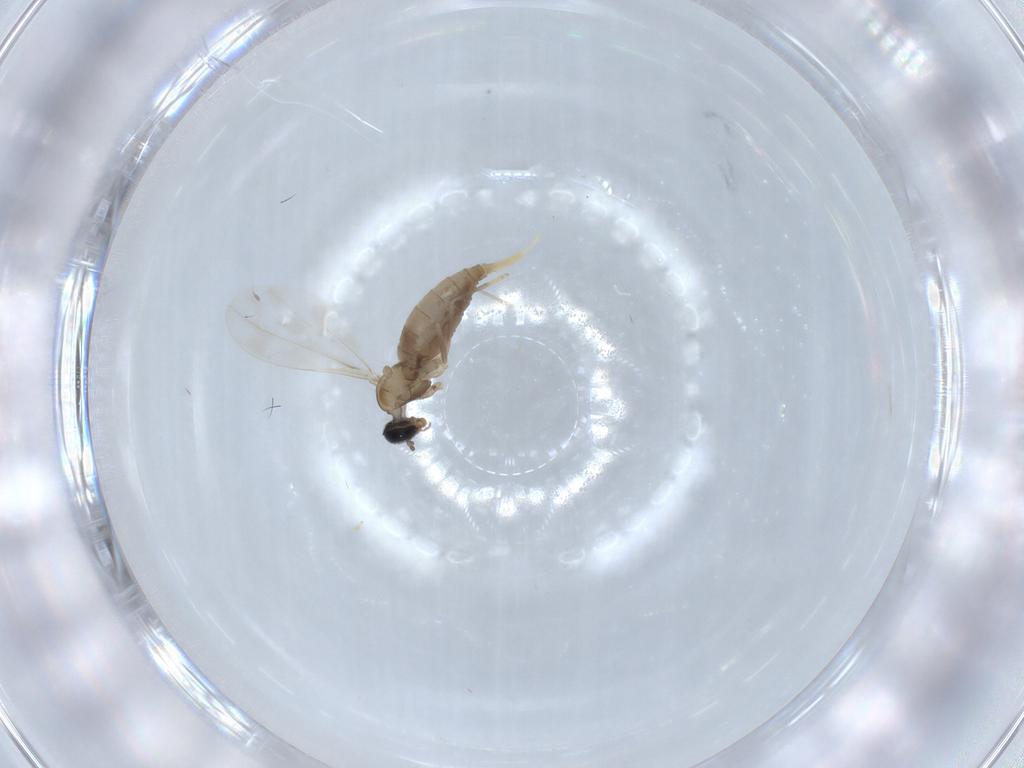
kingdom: Animalia
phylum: Arthropoda
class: Insecta
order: Diptera
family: Cecidomyiidae
